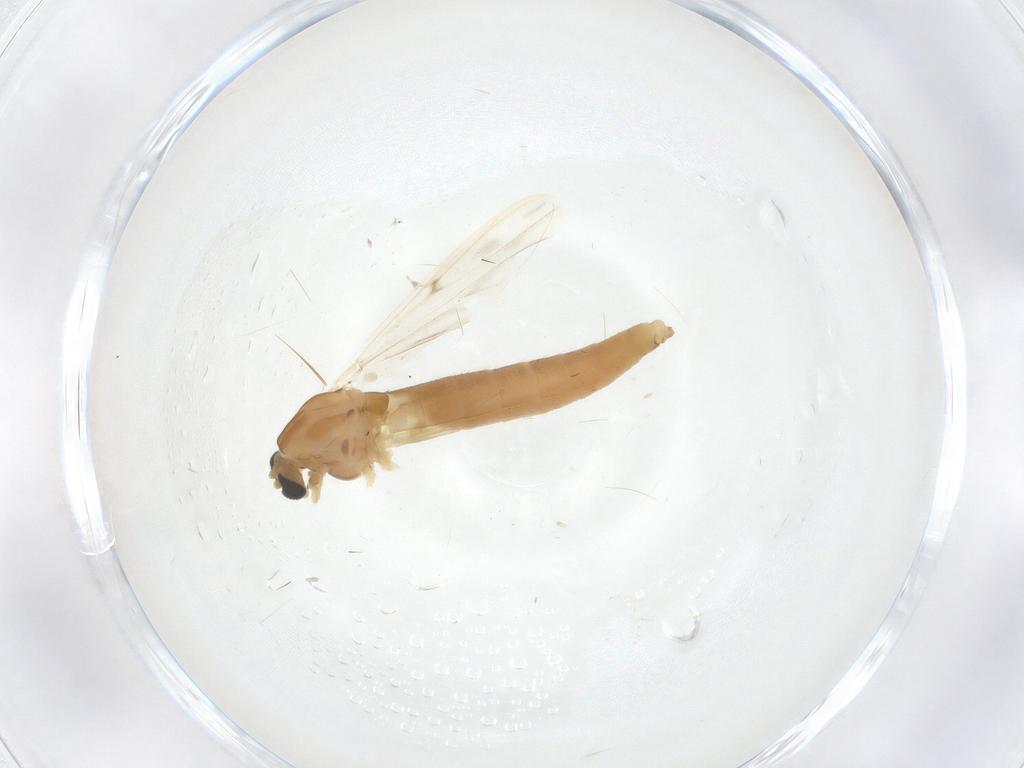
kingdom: Animalia
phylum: Arthropoda
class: Insecta
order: Diptera
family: Chironomidae
